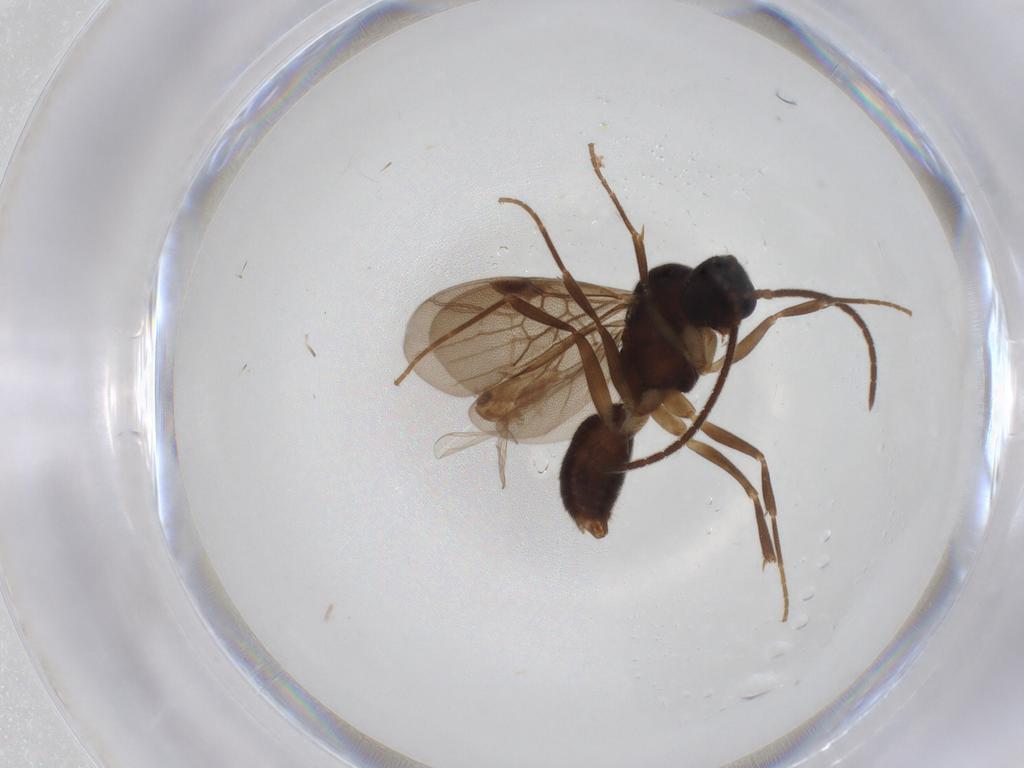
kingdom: Animalia
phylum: Arthropoda
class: Insecta
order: Hymenoptera
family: Formicidae
